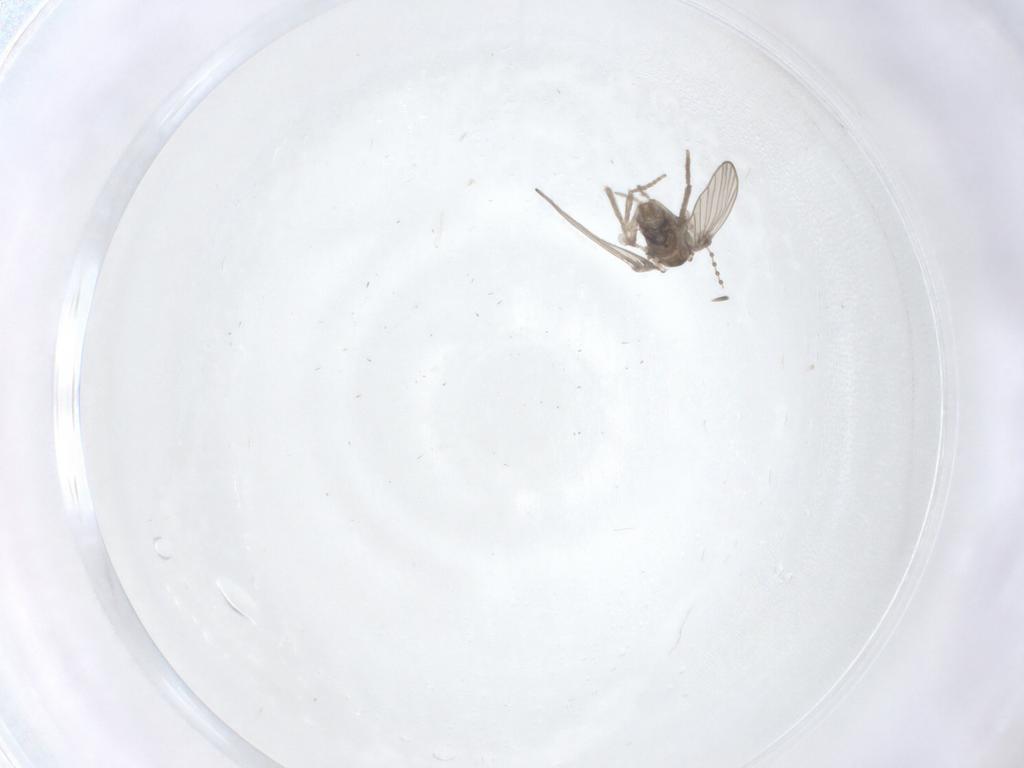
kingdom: Animalia
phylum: Arthropoda
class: Insecta
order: Diptera
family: Psychodidae
